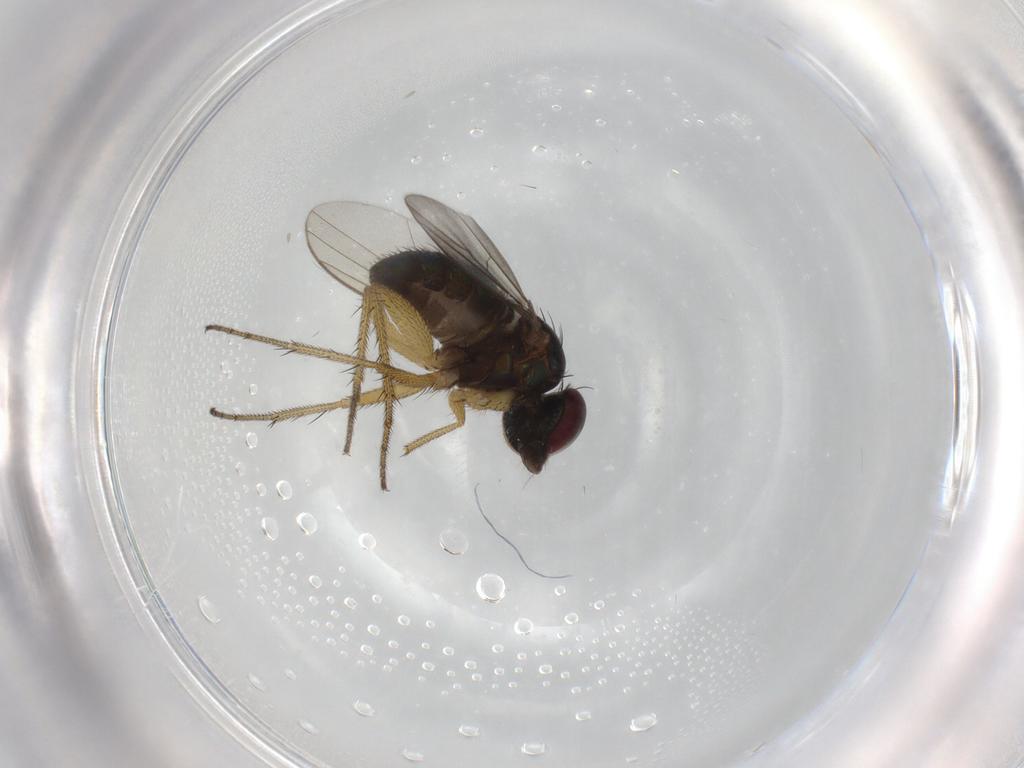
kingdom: Animalia
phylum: Arthropoda
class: Insecta
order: Diptera
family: Dolichopodidae
